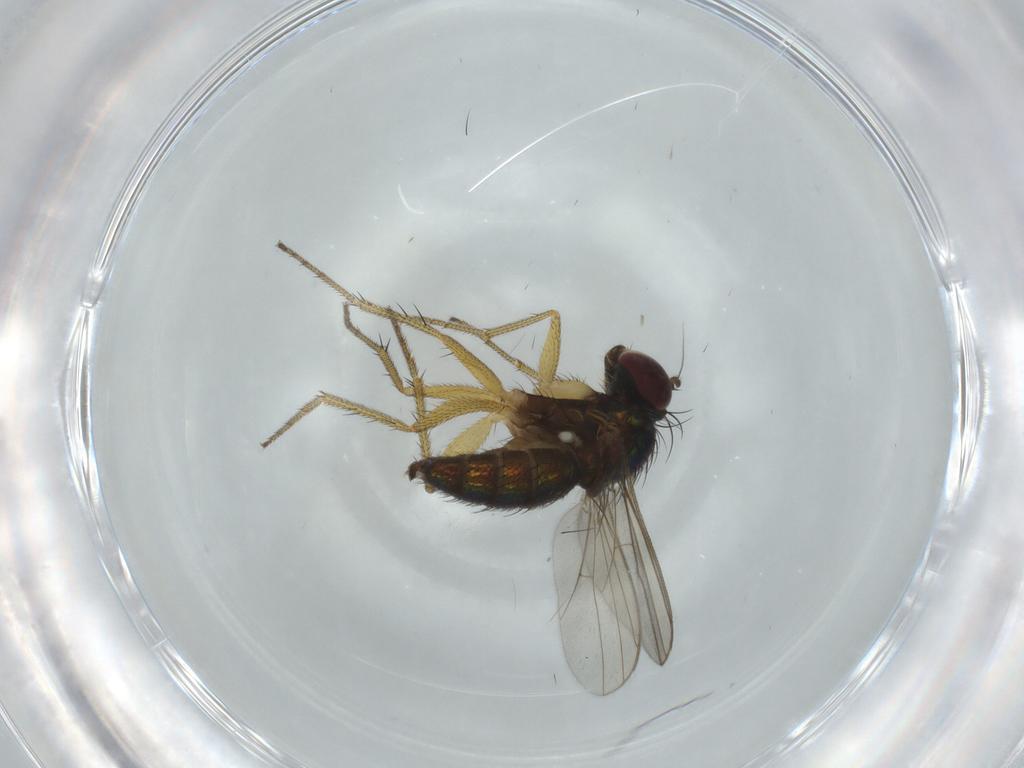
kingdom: Animalia
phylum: Arthropoda
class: Insecta
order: Diptera
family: Dolichopodidae
